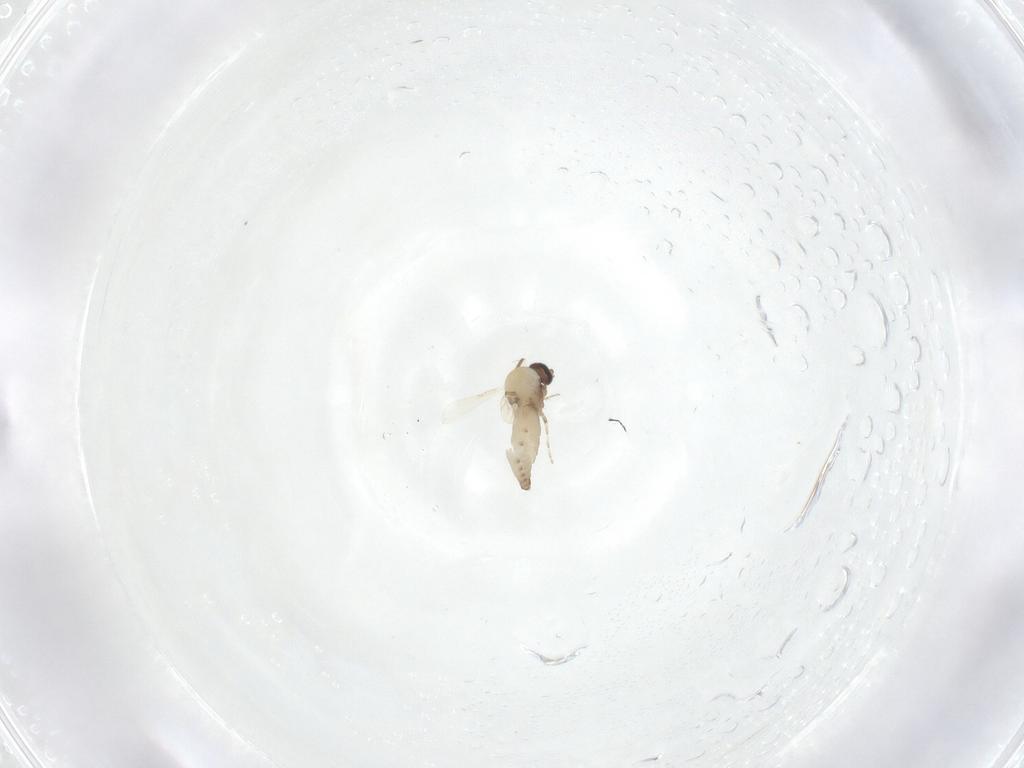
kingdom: Animalia
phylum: Arthropoda
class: Insecta
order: Diptera
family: Ceratopogonidae
